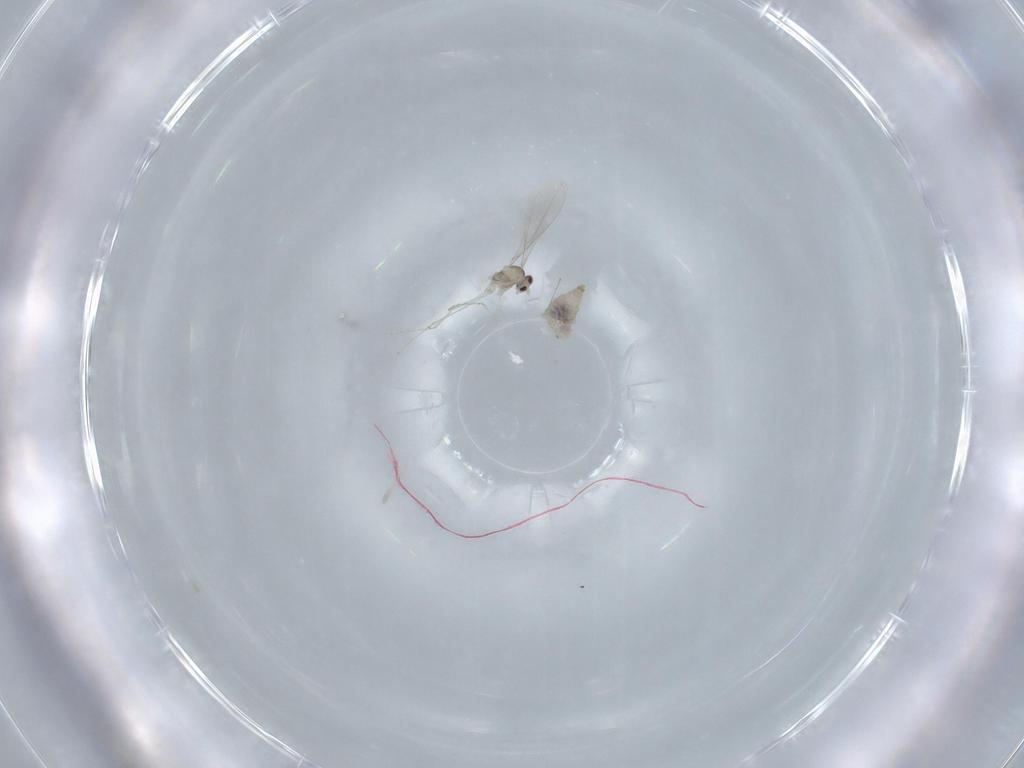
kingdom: Animalia
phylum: Arthropoda
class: Insecta
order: Diptera
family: Cecidomyiidae
